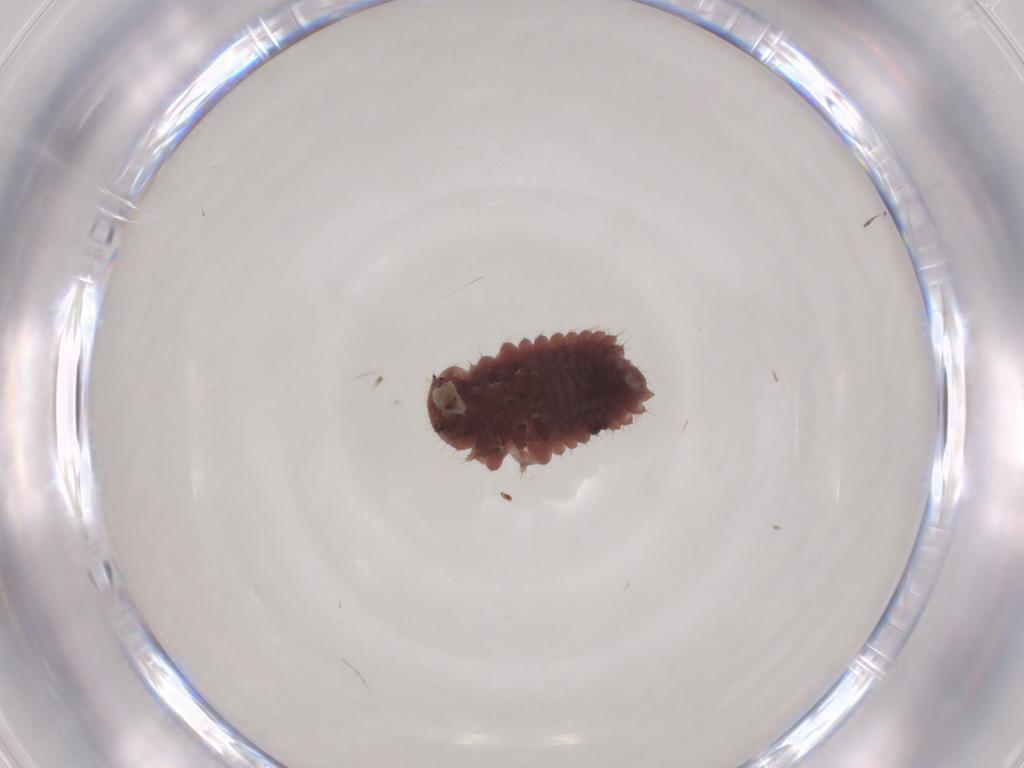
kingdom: Animalia
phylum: Arthropoda
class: Insecta
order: Coleoptera
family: Coccinellidae
